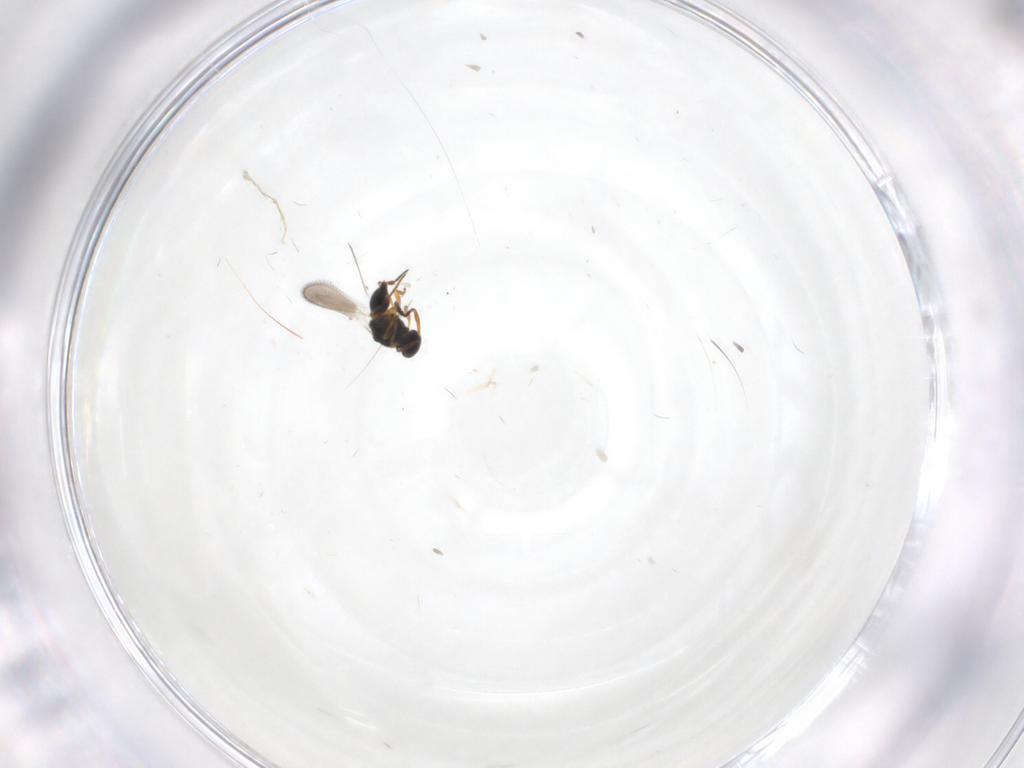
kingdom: Animalia
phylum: Arthropoda
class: Insecta
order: Hymenoptera
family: Platygastridae
